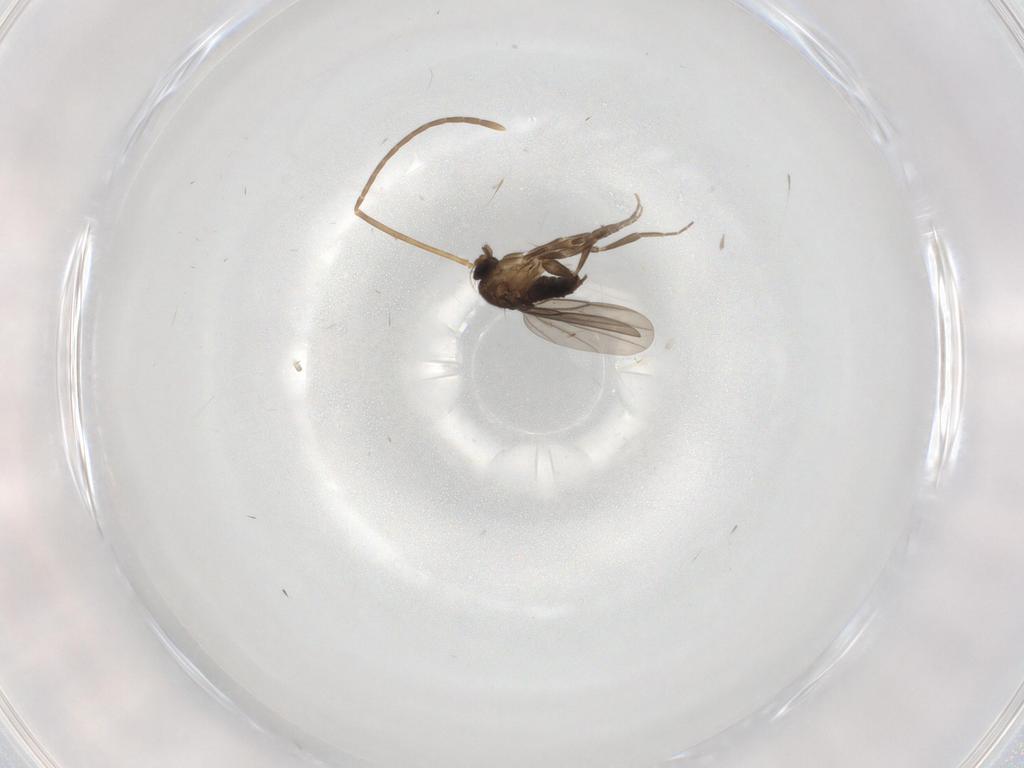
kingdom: Animalia
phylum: Arthropoda
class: Insecta
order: Diptera
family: Phoridae
